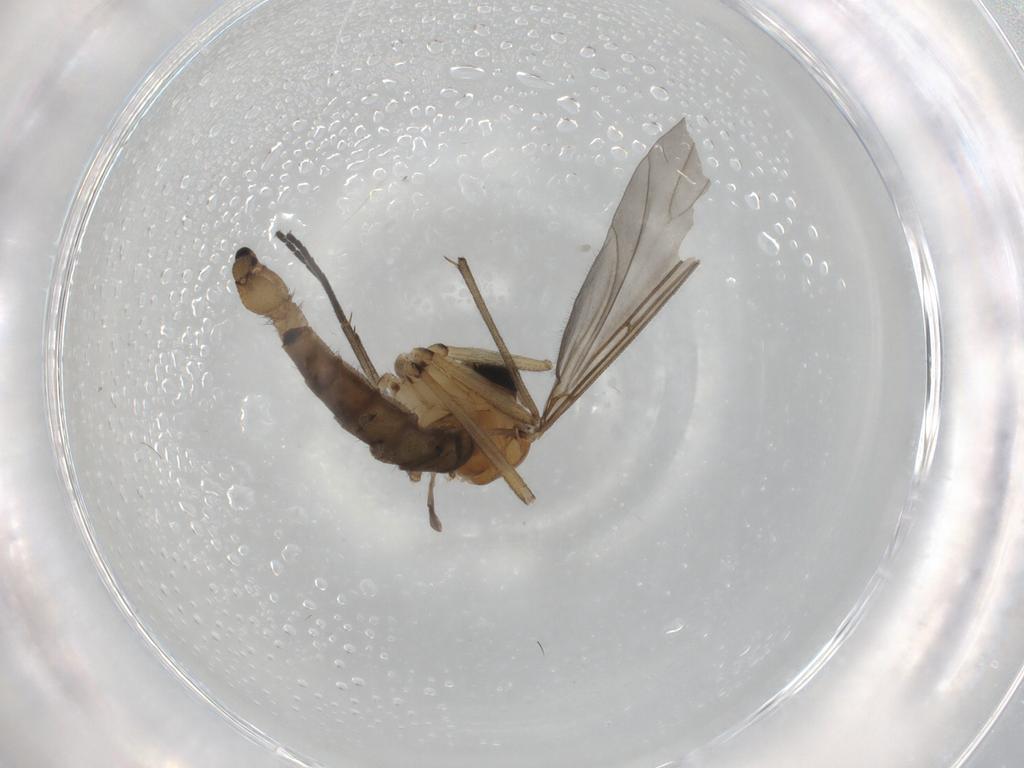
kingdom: Animalia
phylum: Arthropoda
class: Insecta
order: Diptera
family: Sciaridae
